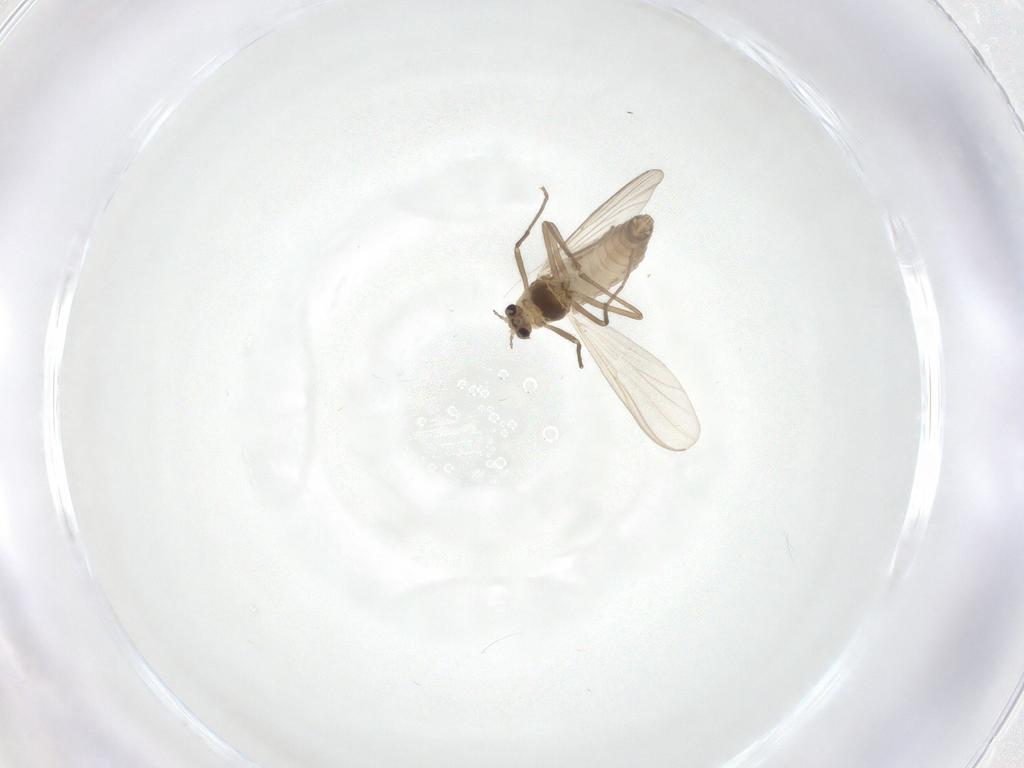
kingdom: Animalia
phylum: Arthropoda
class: Insecta
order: Diptera
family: Chironomidae
